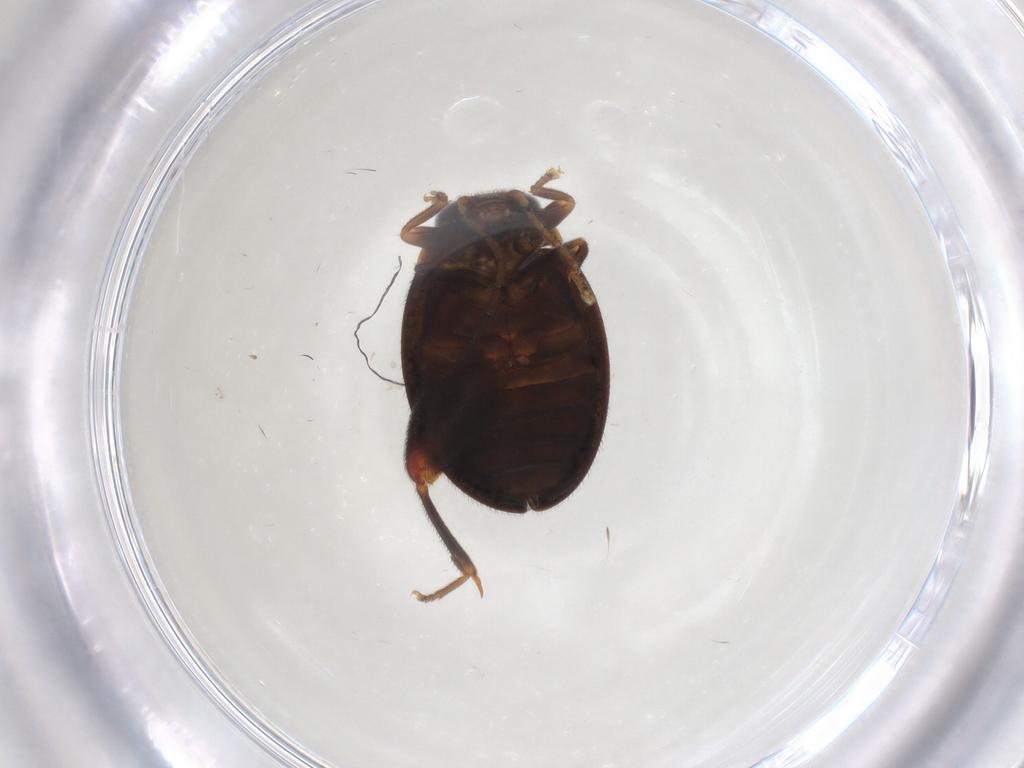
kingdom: Animalia
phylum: Arthropoda
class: Insecta
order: Coleoptera
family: Scirtidae
